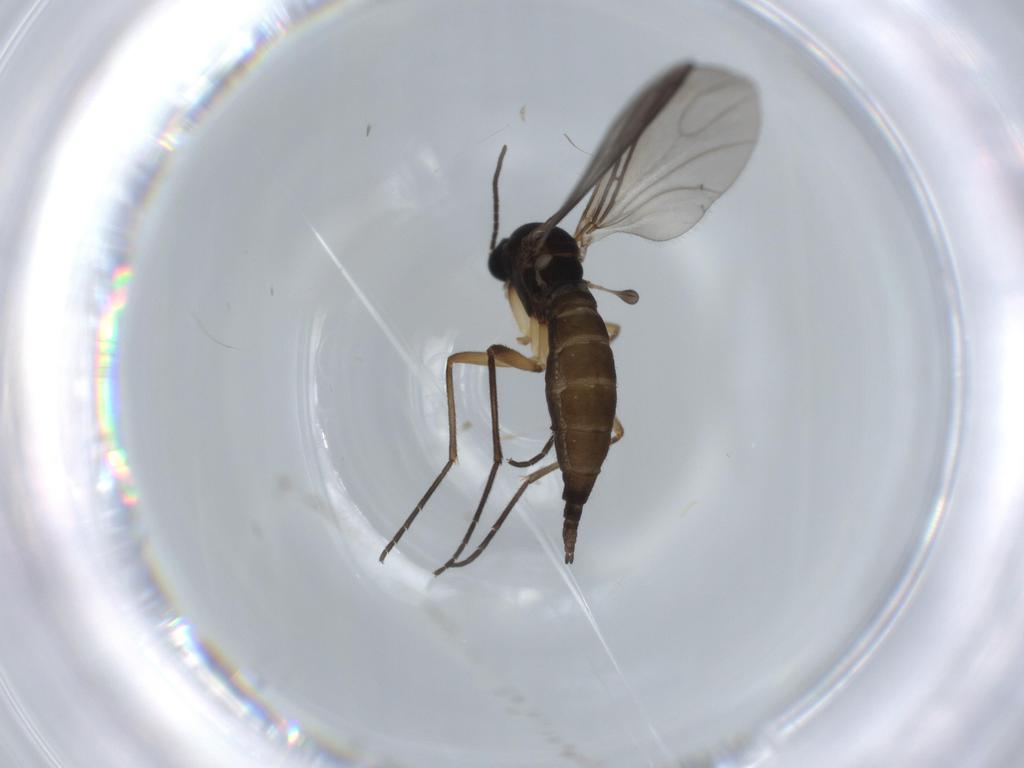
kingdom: Animalia
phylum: Arthropoda
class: Insecta
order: Diptera
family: Sciaridae
